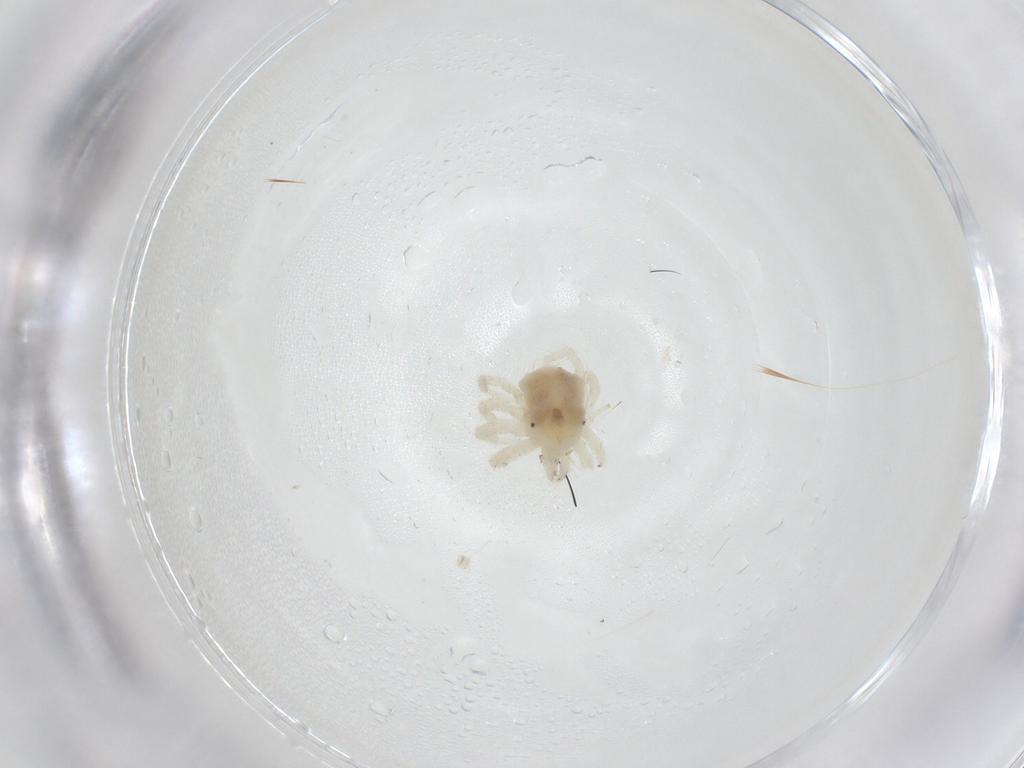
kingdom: Animalia
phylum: Arthropoda
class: Arachnida
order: Trombidiformes
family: Anystidae
